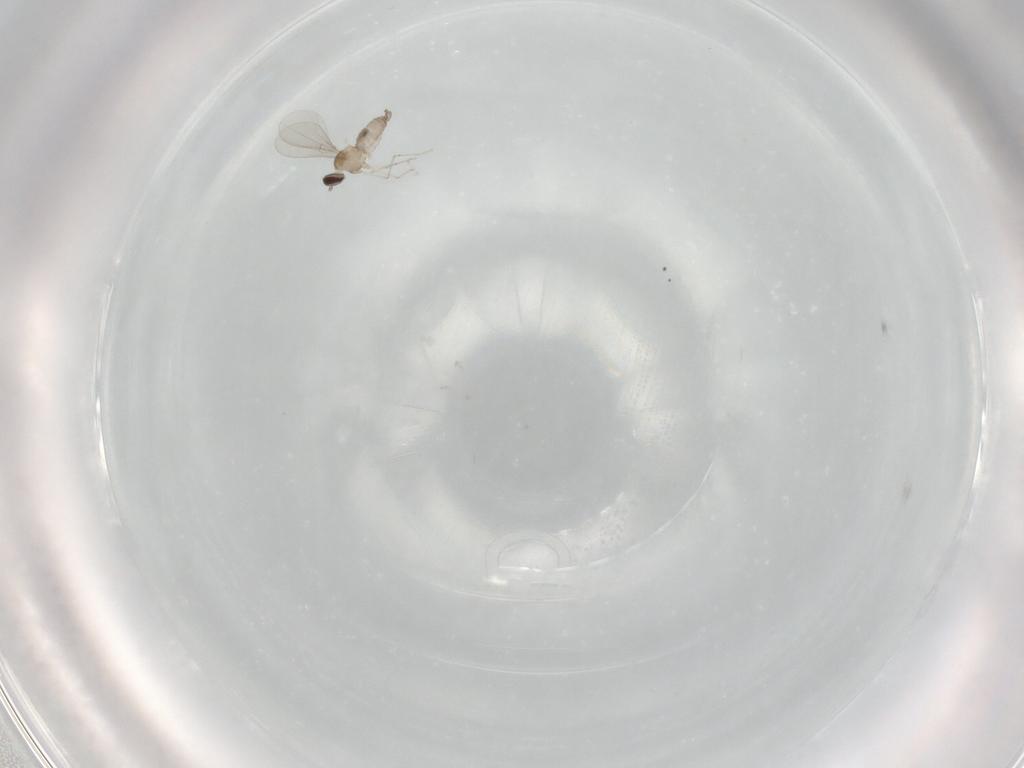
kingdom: Animalia
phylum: Arthropoda
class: Insecta
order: Diptera
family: Cecidomyiidae
